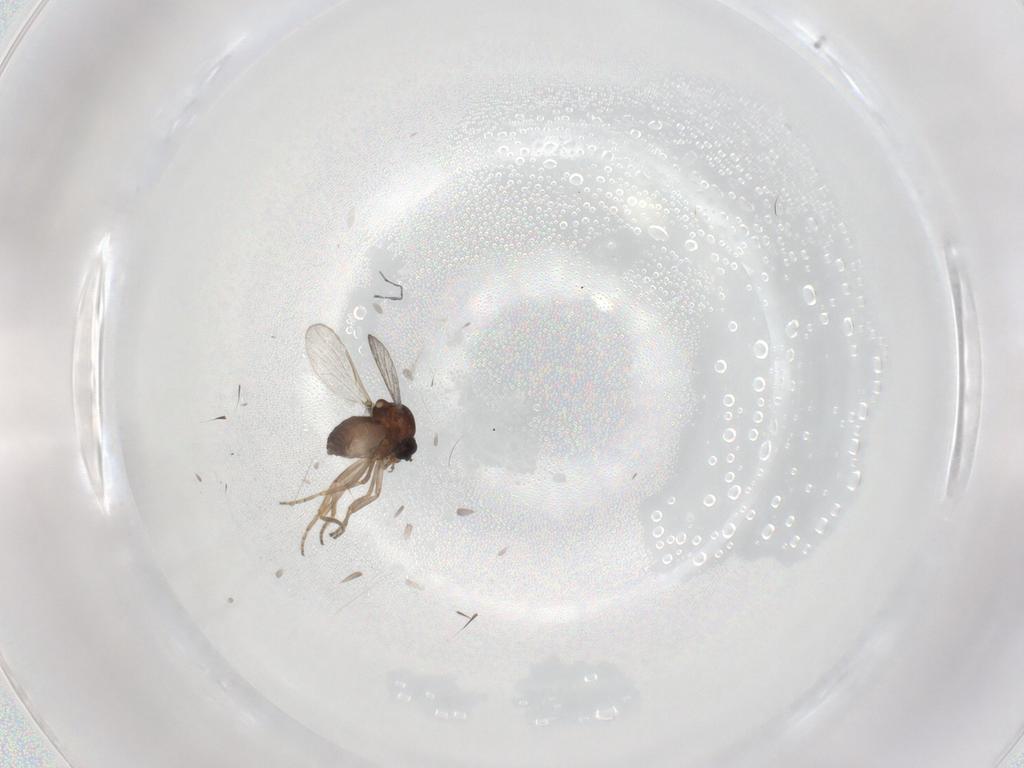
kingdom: Animalia
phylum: Arthropoda
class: Insecta
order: Diptera
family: Ceratopogonidae
